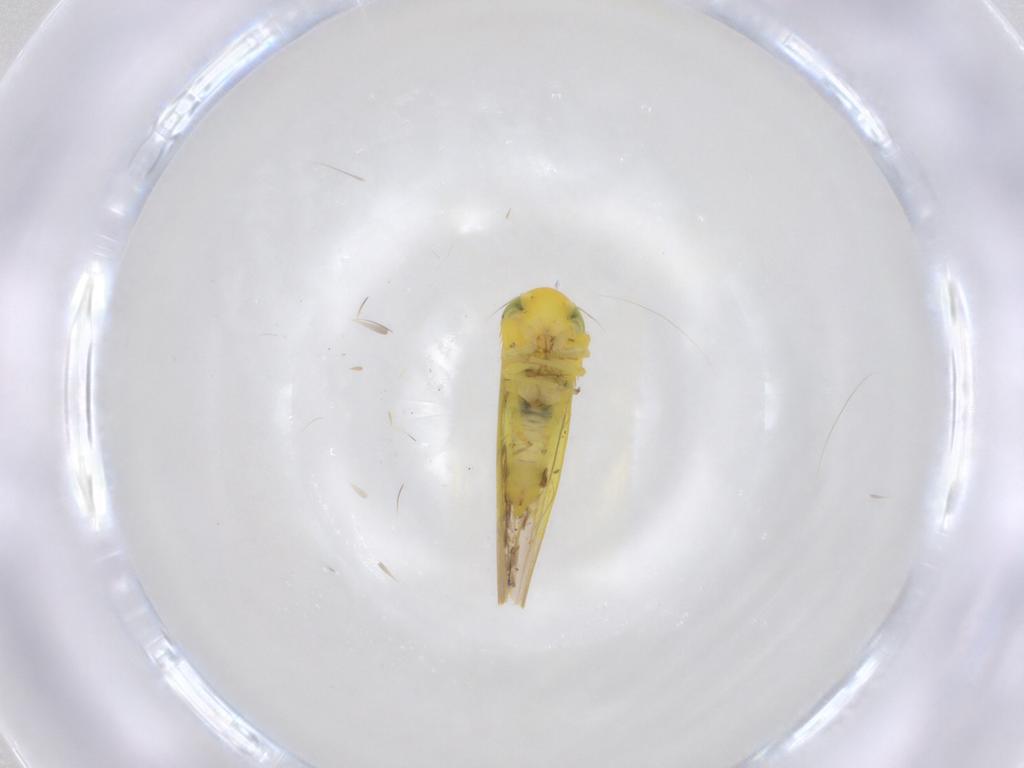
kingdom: Animalia
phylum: Arthropoda
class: Insecta
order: Hemiptera
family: Cicadellidae
